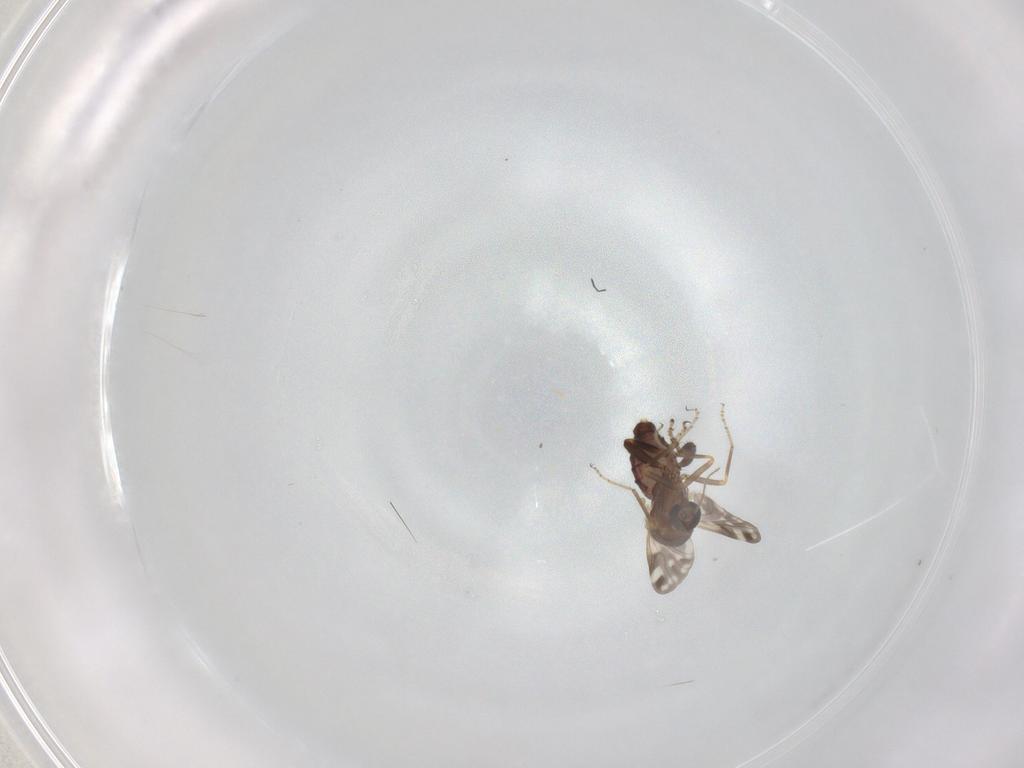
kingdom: Animalia
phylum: Arthropoda
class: Insecta
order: Diptera
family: Ceratopogonidae
